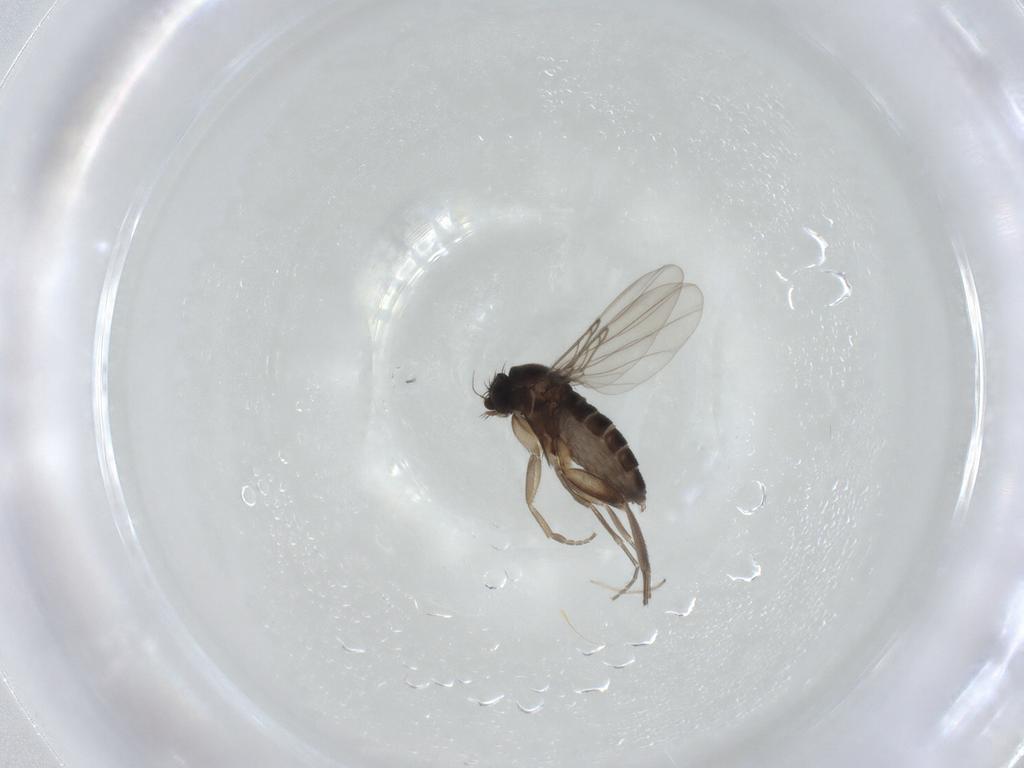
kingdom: Animalia
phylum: Arthropoda
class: Insecta
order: Diptera
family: Phoridae
